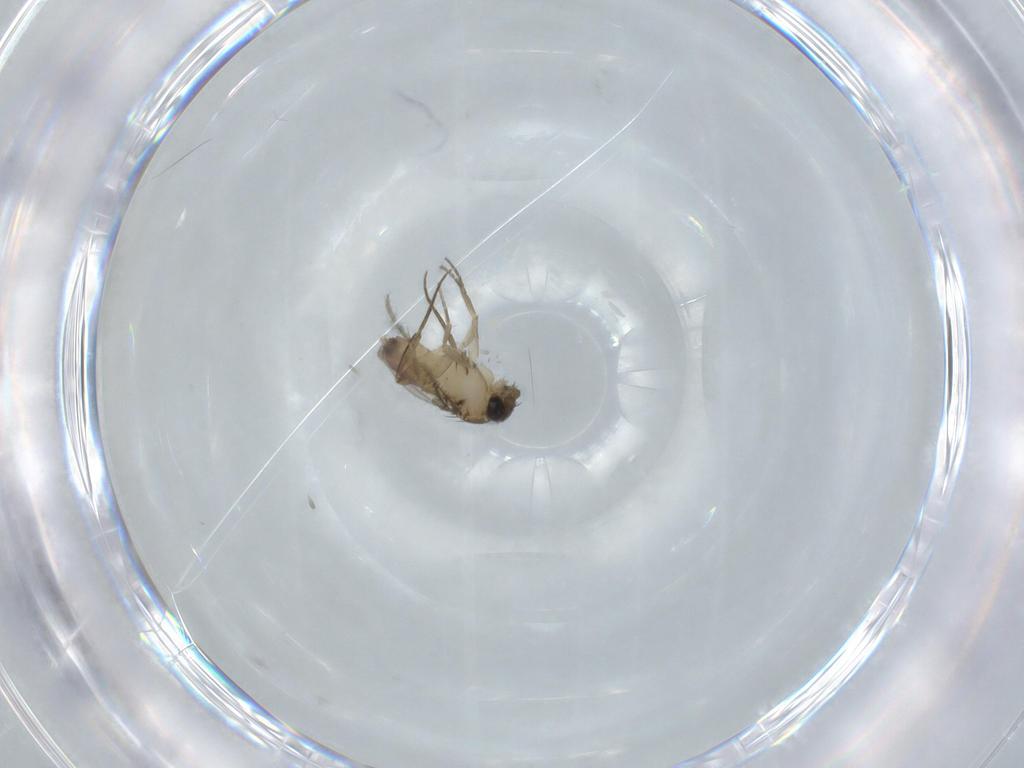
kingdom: Animalia
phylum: Arthropoda
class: Insecta
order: Diptera
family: Phoridae
